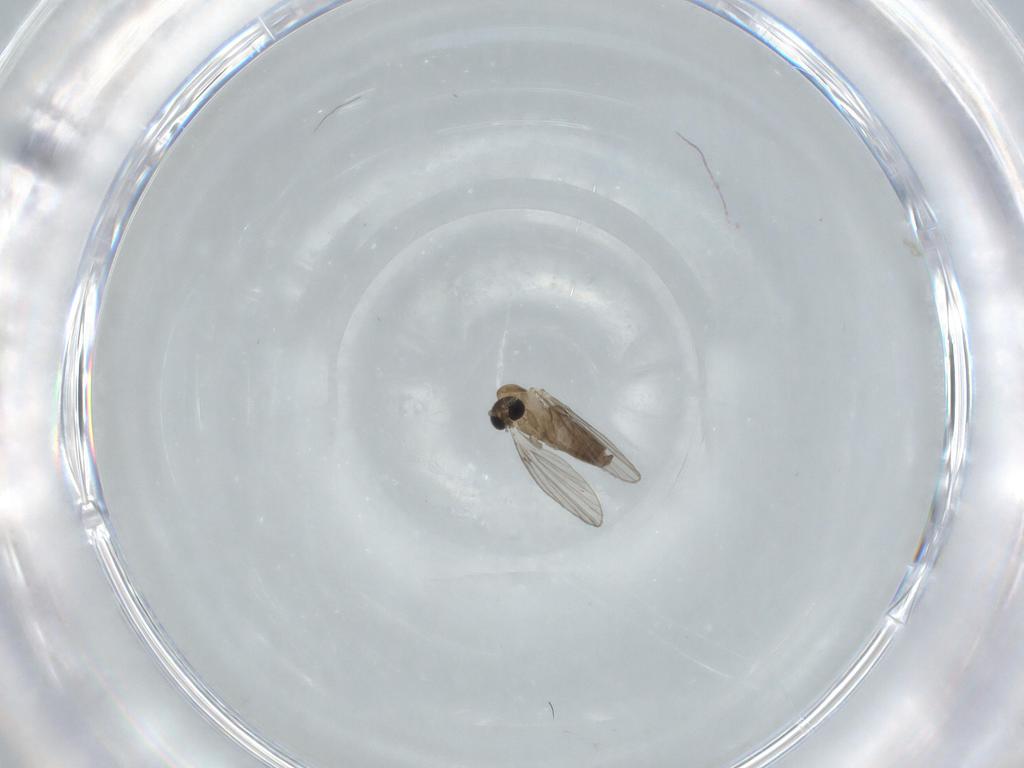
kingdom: Animalia
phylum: Arthropoda
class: Insecta
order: Diptera
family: Psychodidae
